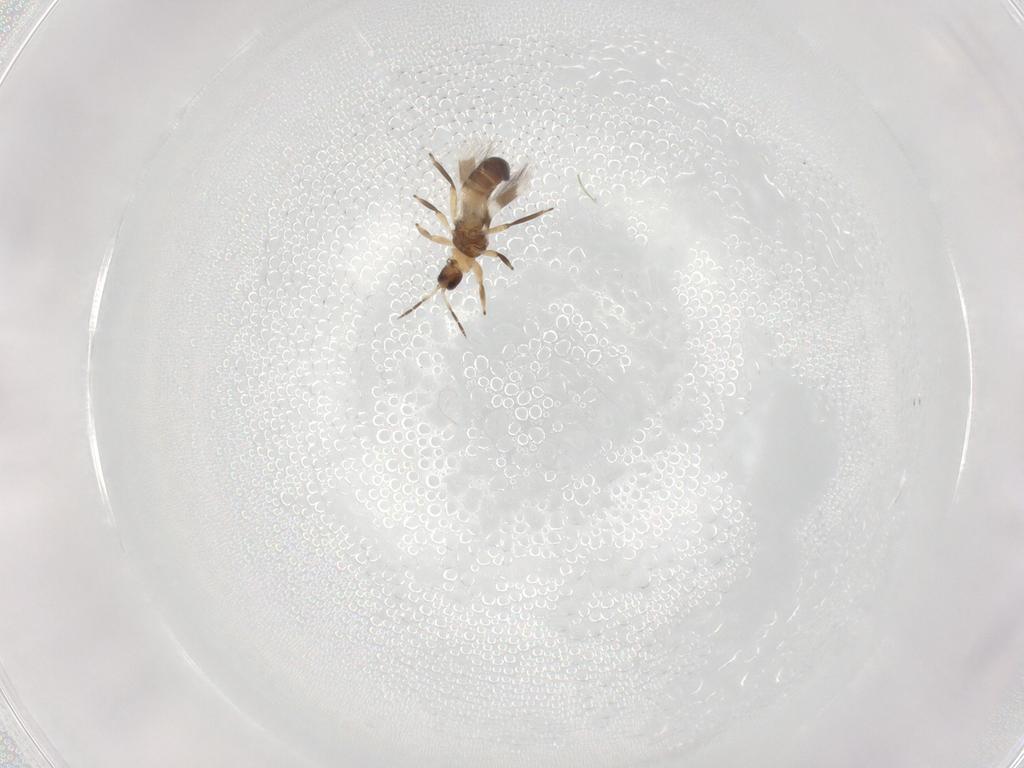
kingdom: Animalia
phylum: Arthropoda
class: Insecta
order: Thysanoptera
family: Aeolothripidae
